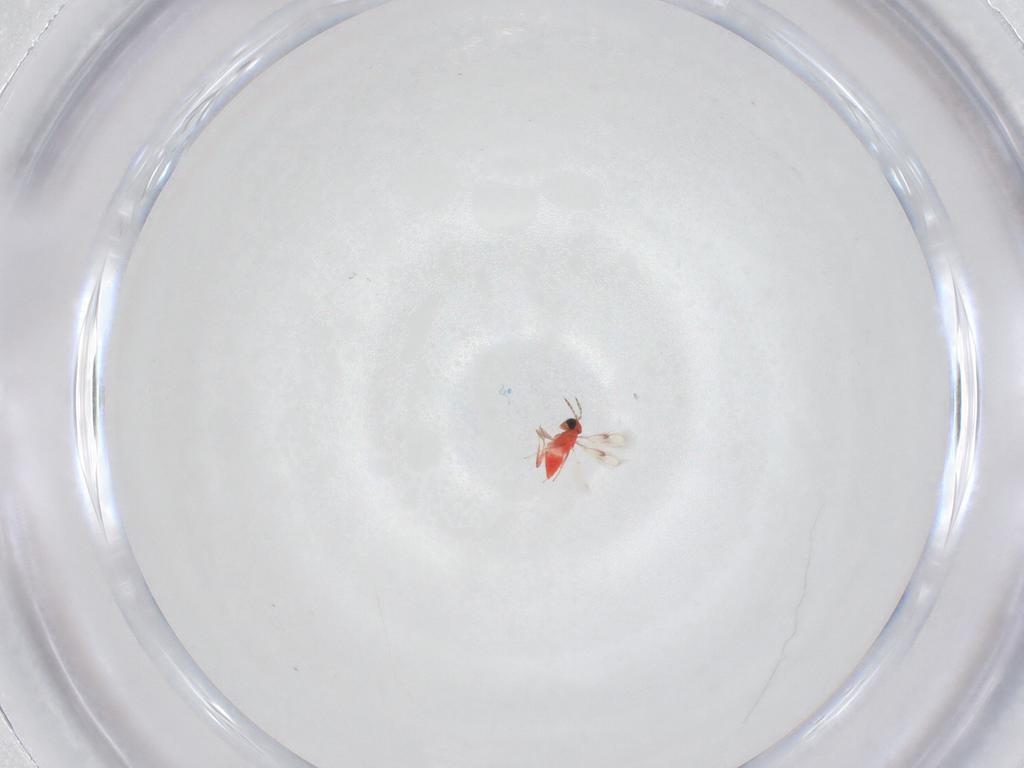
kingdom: Animalia
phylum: Arthropoda
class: Insecta
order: Hymenoptera
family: Trichogrammatidae
